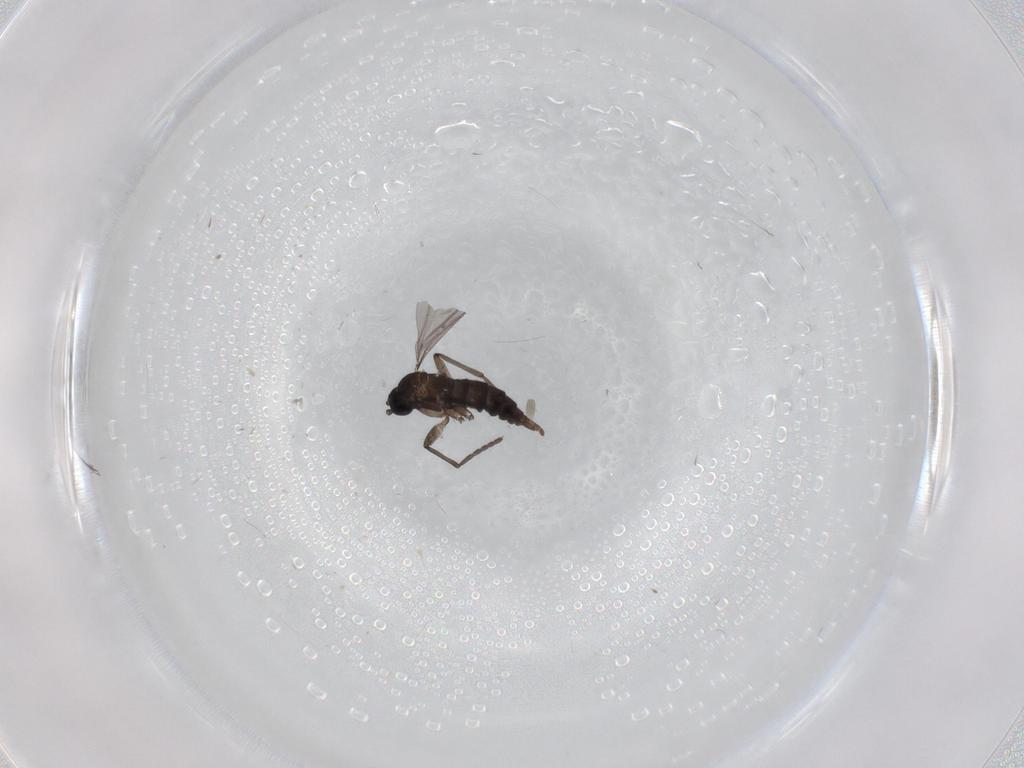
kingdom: Animalia
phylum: Arthropoda
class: Insecta
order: Diptera
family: Sciaridae
